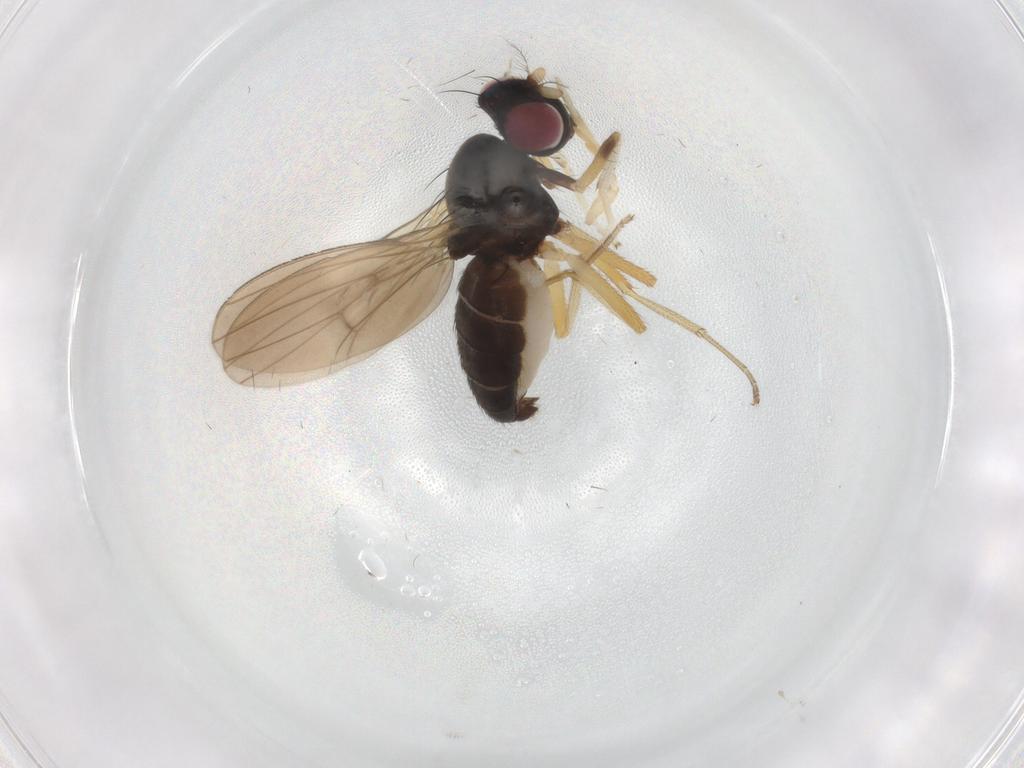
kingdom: Animalia
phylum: Arthropoda
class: Insecta
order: Diptera
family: Lauxaniidae
